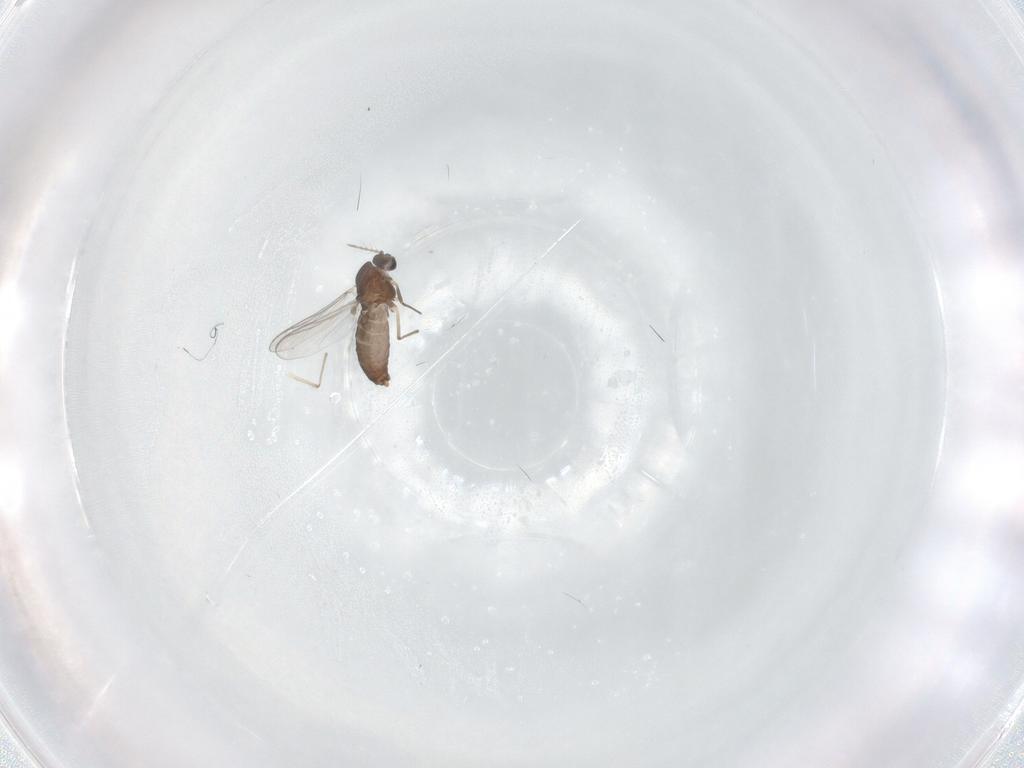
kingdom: Animalia
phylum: Arthropoda
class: Insecta
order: Diptera
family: Chironomidae
